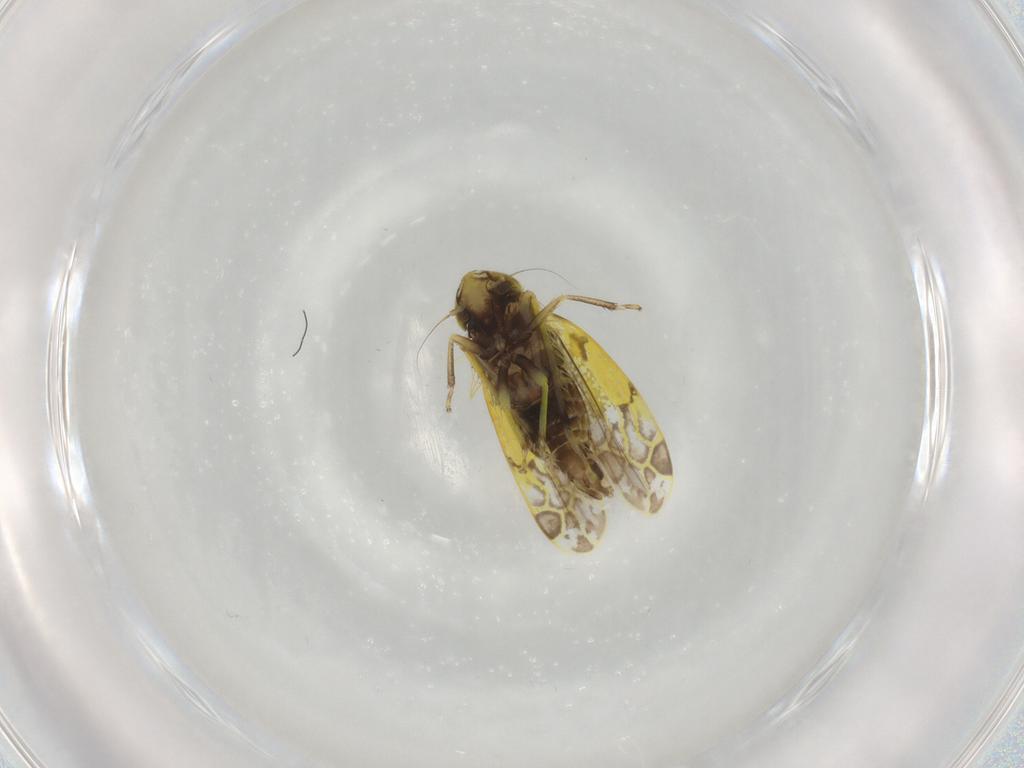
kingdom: Animalia
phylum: Arthropoda
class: Insecta
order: Hemiptera
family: Cicadellidae
